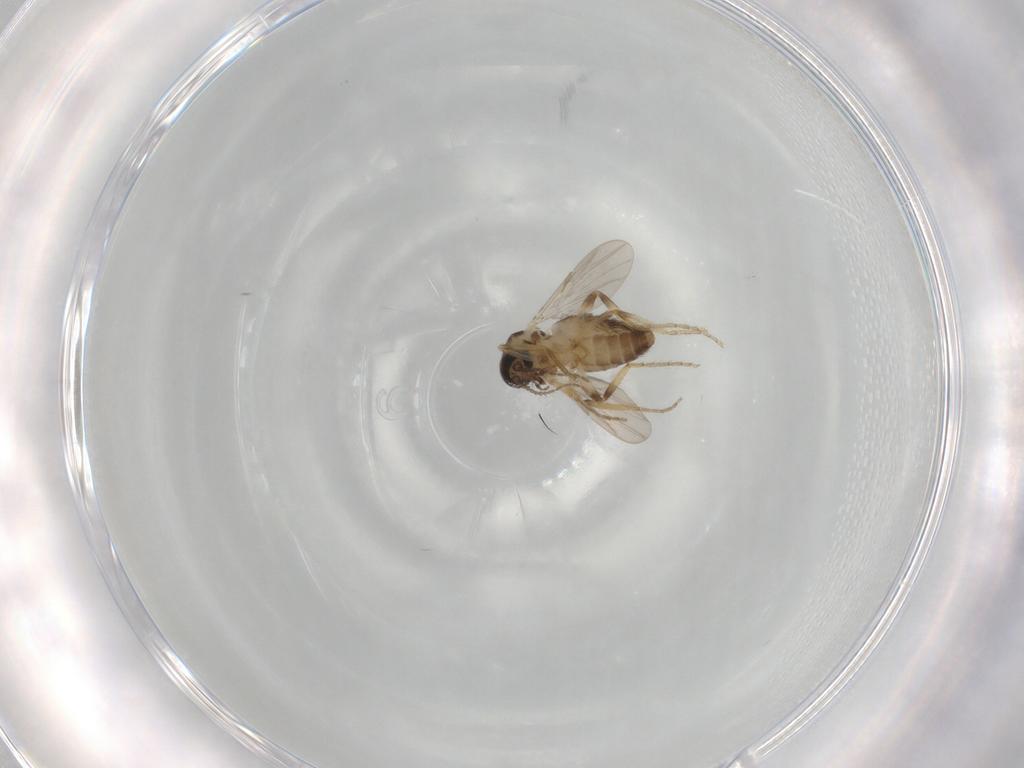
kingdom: Animalia
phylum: Arthropoda
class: Insecta
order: Diptera
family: Ceratopogonidae
